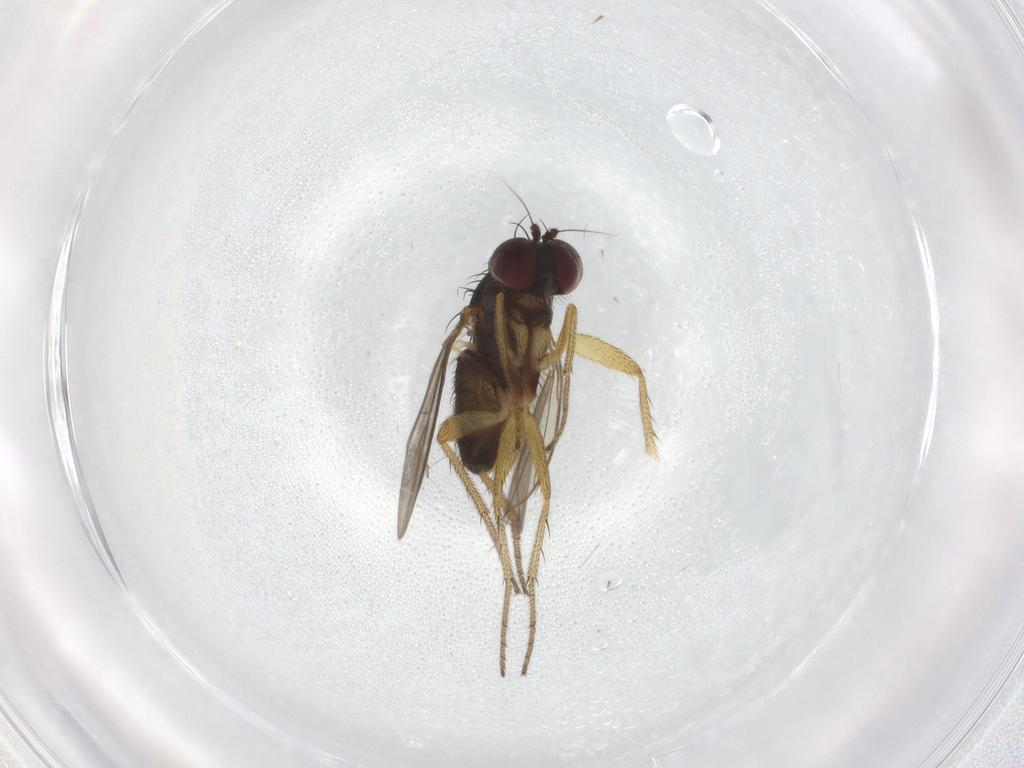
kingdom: Animalia
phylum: Arthropoda
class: Insecta
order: Diptera
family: Dolichopodidae
